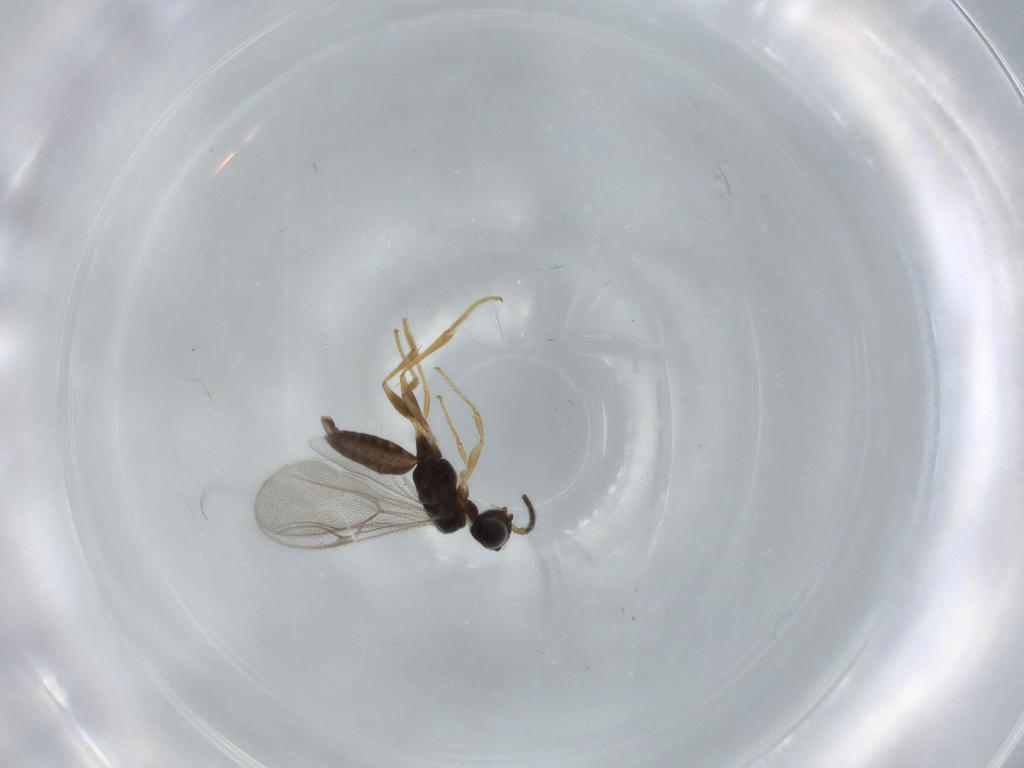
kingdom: Animalia
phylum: Arthropoda
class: Insecta
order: Hymenoptera
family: Dryinidae
